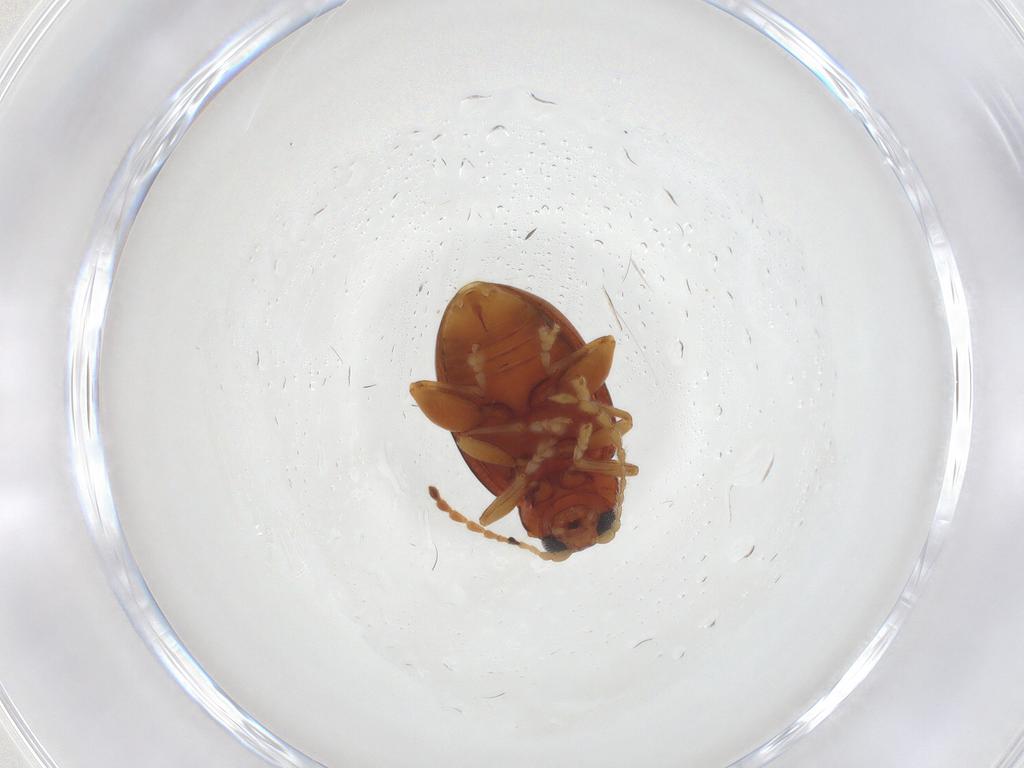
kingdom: Animalia
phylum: Arthropoda
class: Insecta
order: Coleoptera
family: Chrysomelidae
